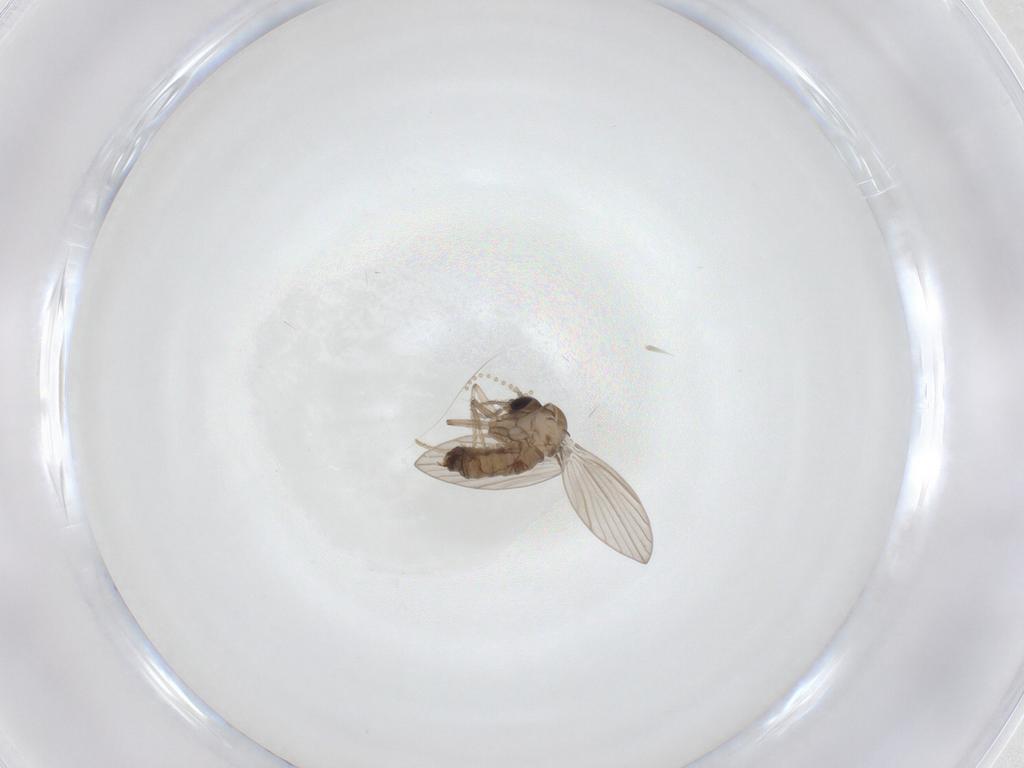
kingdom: Animalia
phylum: Arthropoda
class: Insecta
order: Diptera
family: Psychodidae
